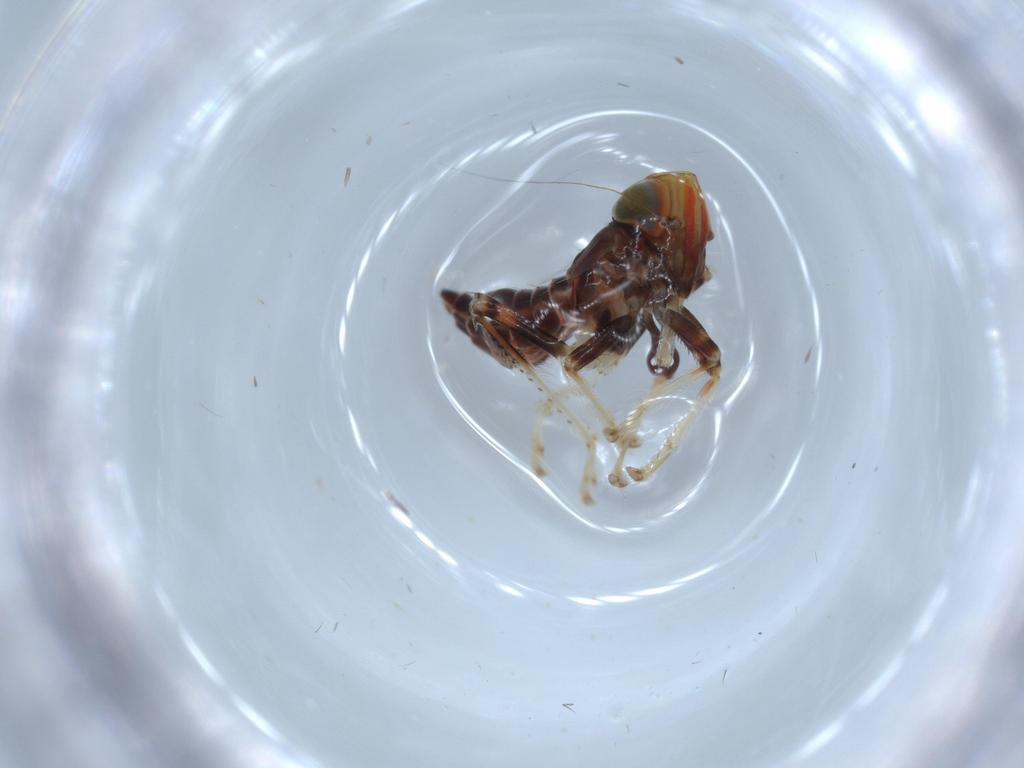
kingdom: Animalia
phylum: Arthropoda
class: Insecta
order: Hemiptera
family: Cicadellidae
